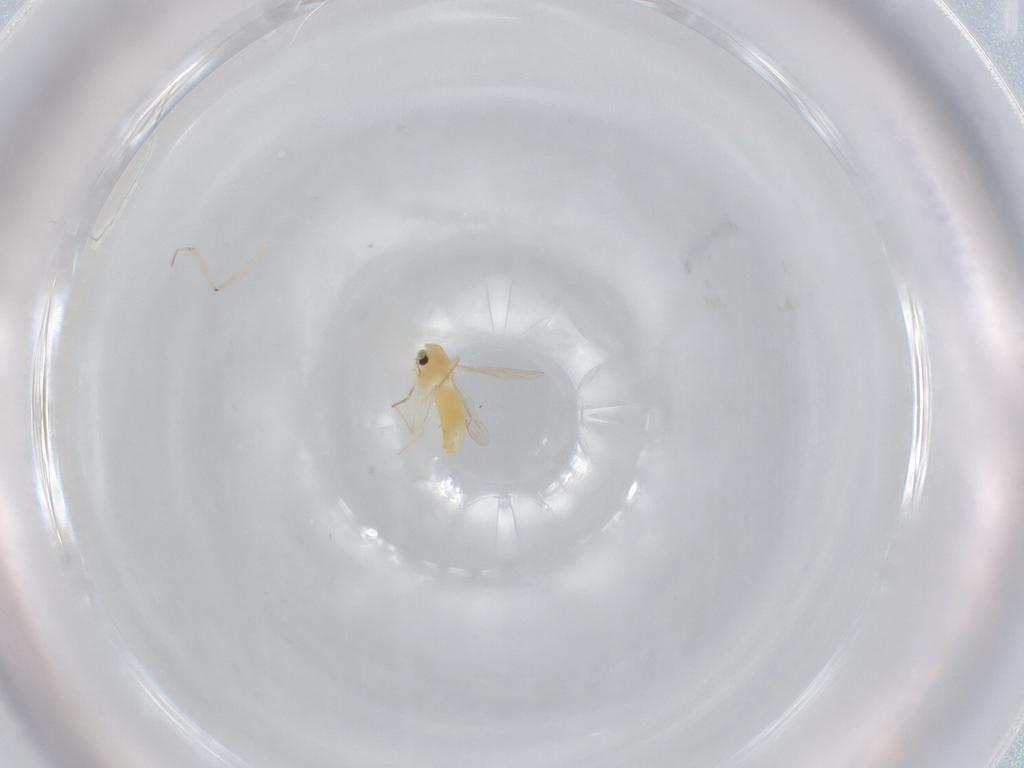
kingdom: Animalia
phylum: Arthropoda
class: Insecta
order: Diptera
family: Chironomidae
